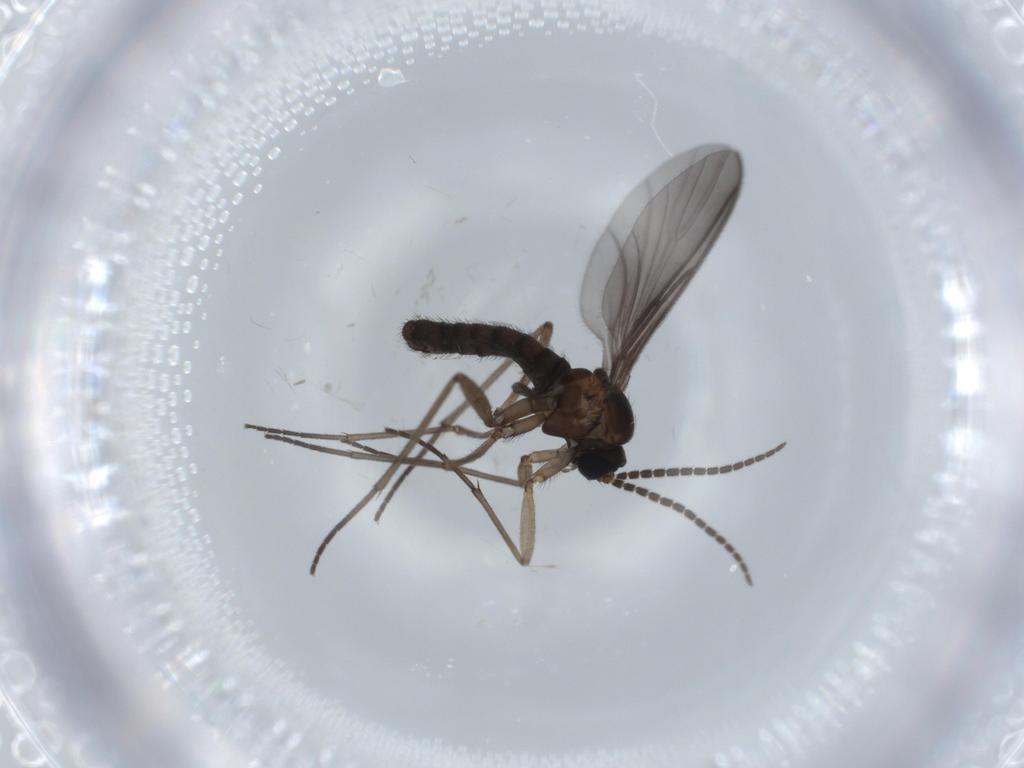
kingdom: Animalia
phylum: Arthropoda
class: Insecta
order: Diptera
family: Sciaridae
